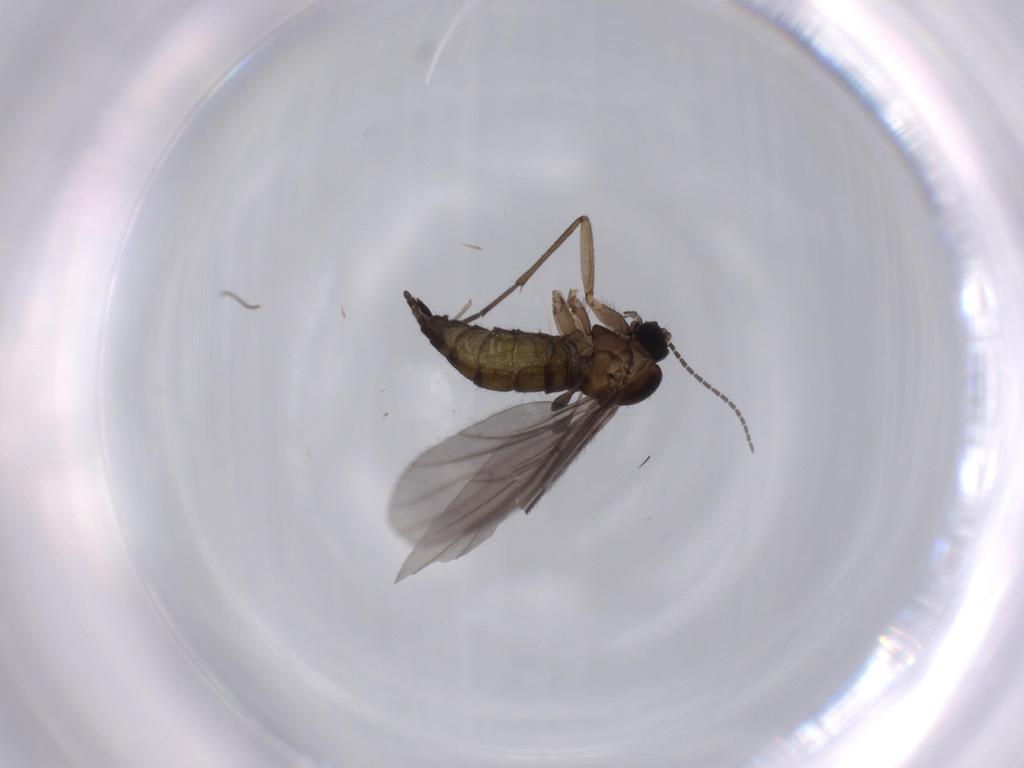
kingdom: Animalia
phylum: Arthropoda
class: Insecta
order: Diptera
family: Sciaridae
